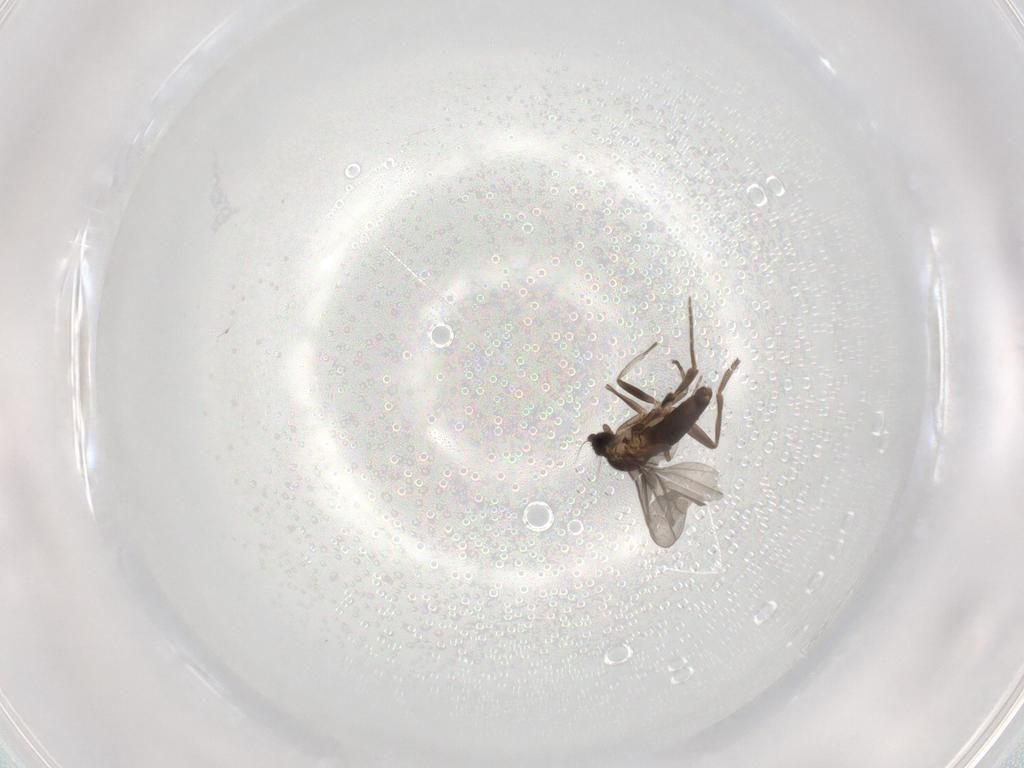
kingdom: Animalia
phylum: Arthropoda
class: Insecta
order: Diptera
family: Phoridae
